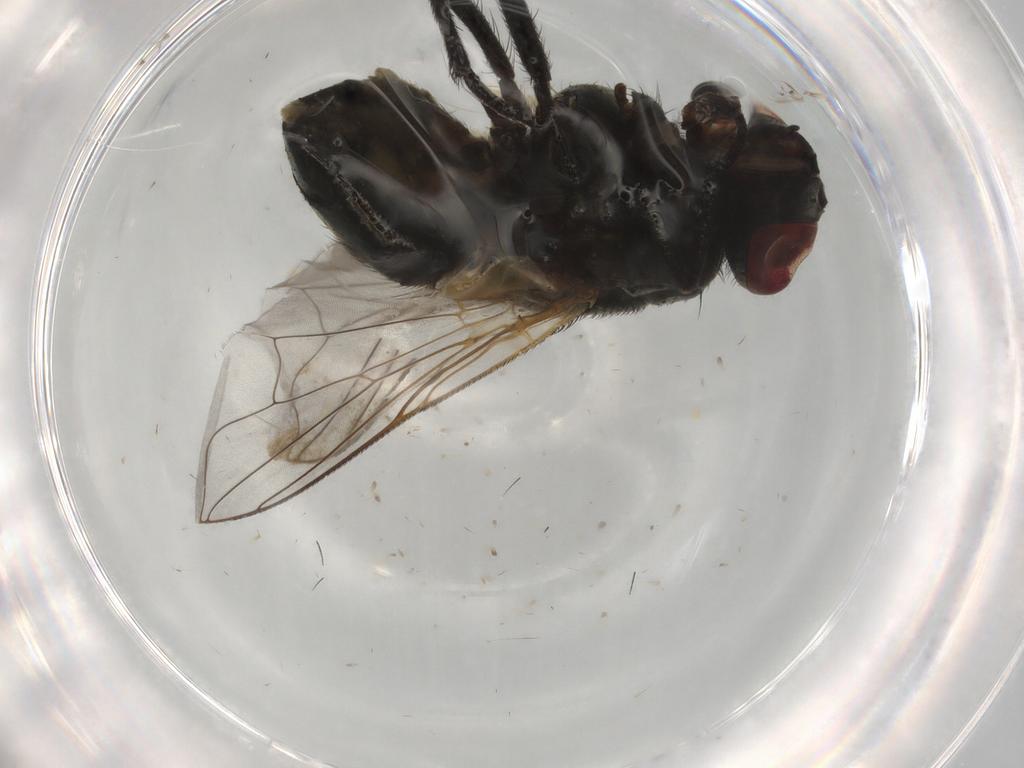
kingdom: Animalia
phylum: Arthropoda
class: Insecta
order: Diptera
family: Muscidae
